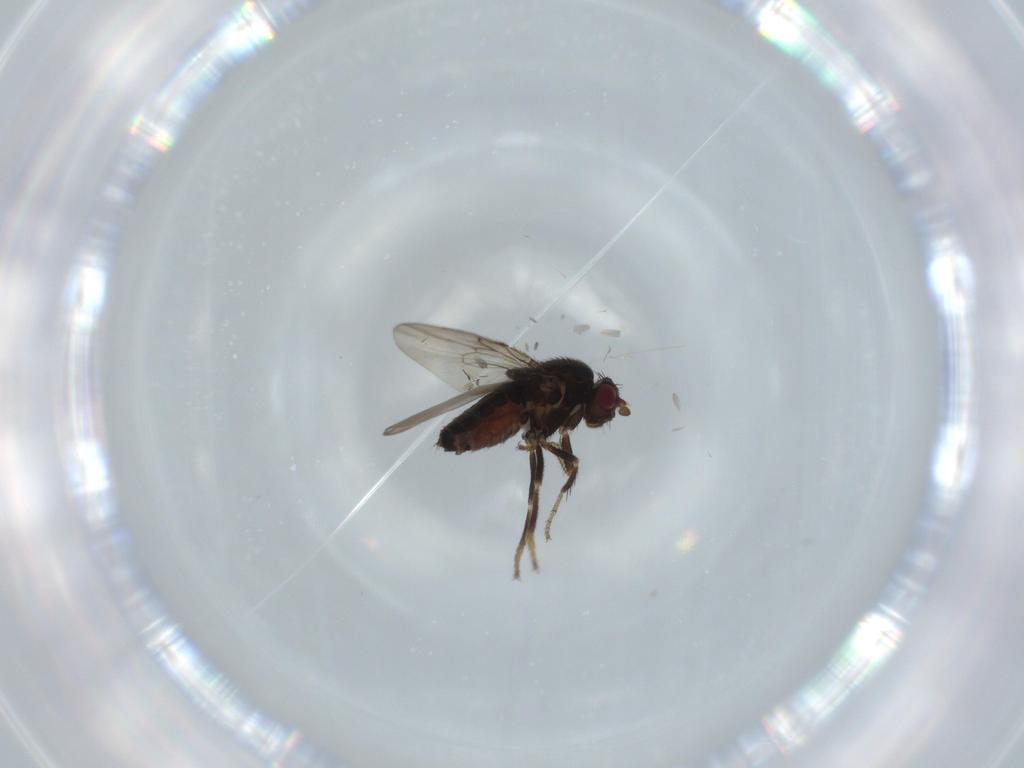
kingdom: Animalia
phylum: Arthropoda
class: Insecta
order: Diptera
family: Sphaeroceridae
